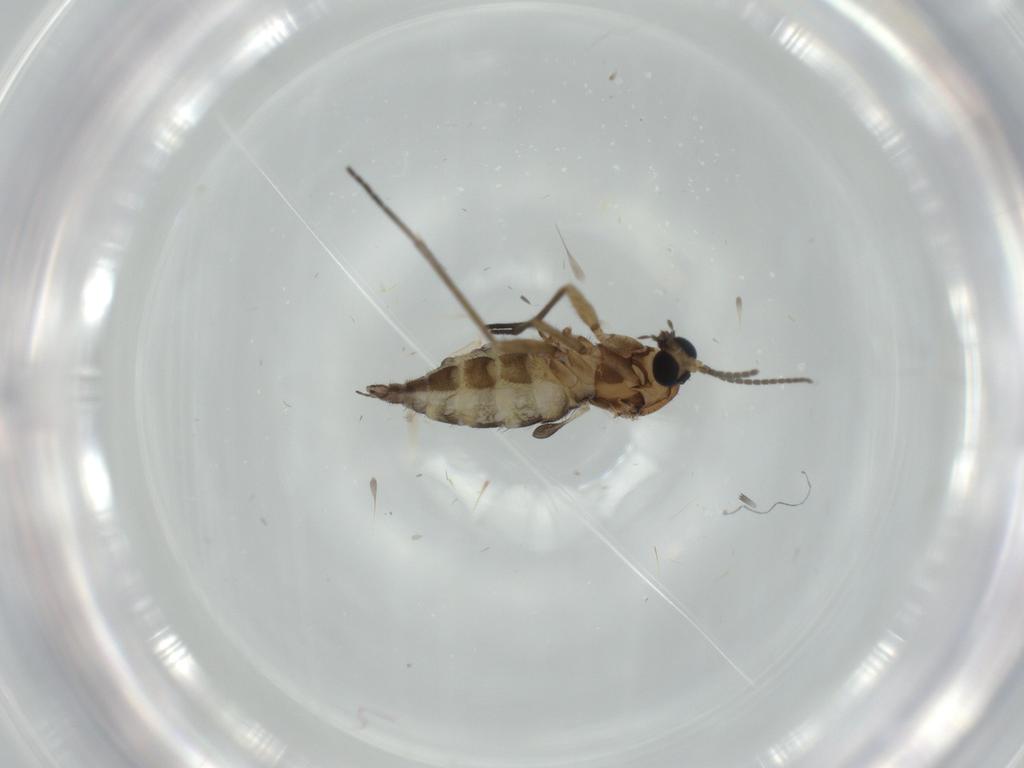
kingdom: Animalia
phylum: Arthropoda
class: Insecta
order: Diptera
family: Sciaridae
